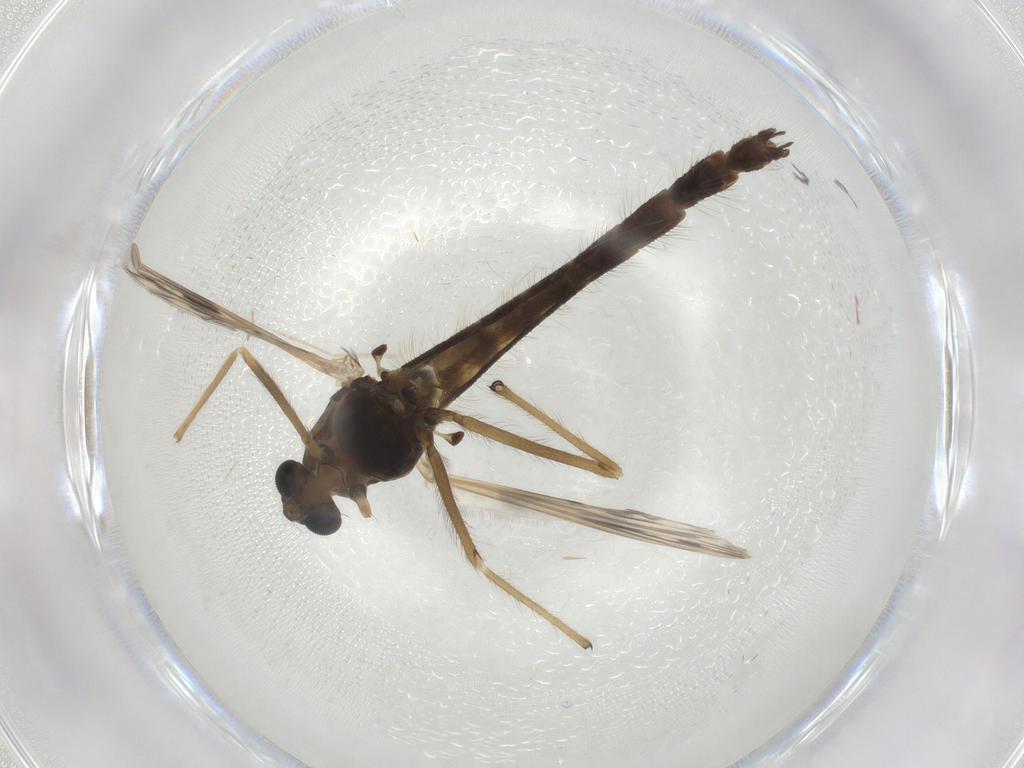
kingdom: Animalia
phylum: Arthropoda
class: Insecta
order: Diptera
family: Chironomidae
